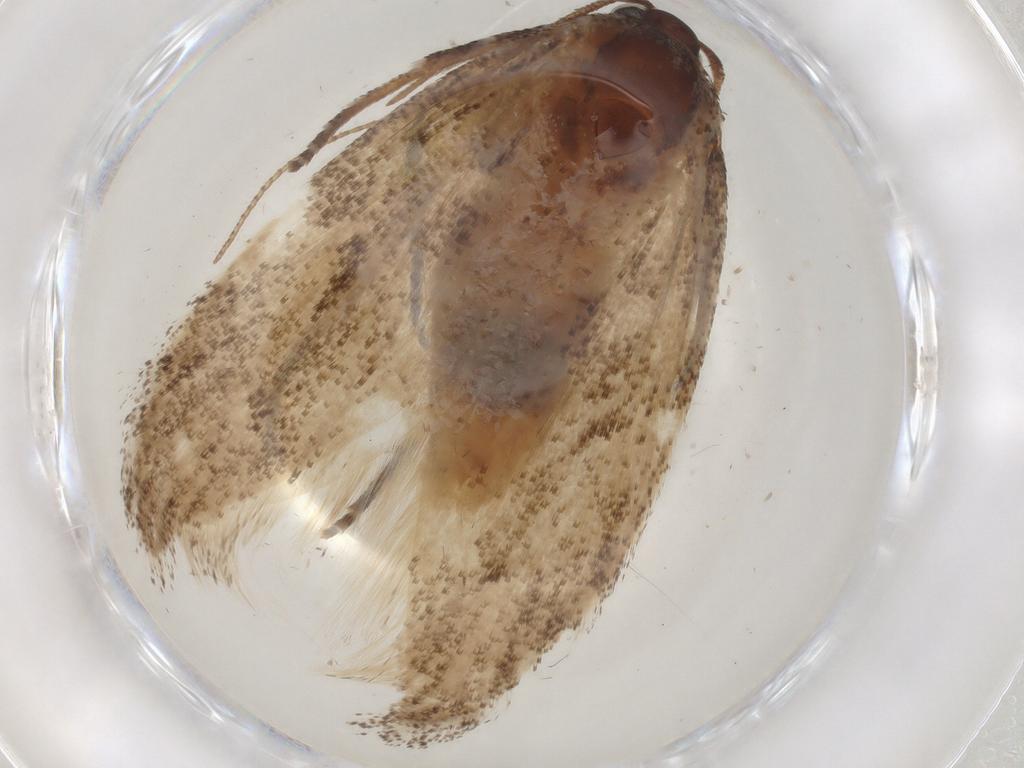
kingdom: Animalia
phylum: Arthropoda
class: Insecta
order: Lepidoptera
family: Cosmopterigidae
